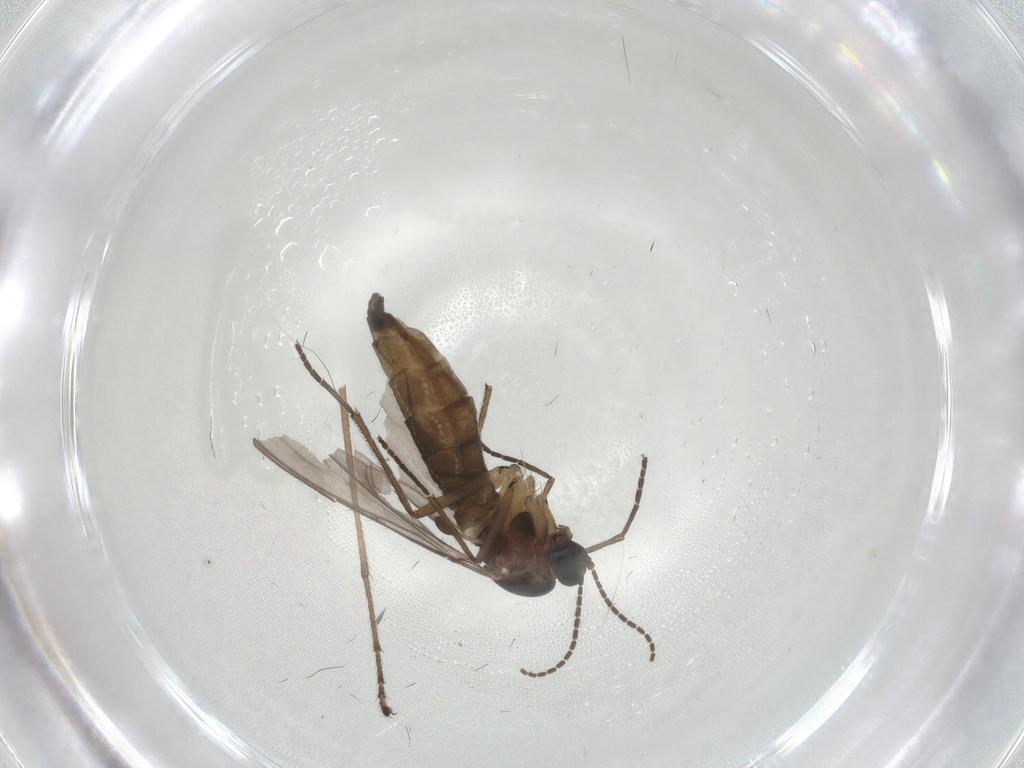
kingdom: Animalia
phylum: Arthropoda
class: Insecta
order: Diptera
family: Sciaridae
